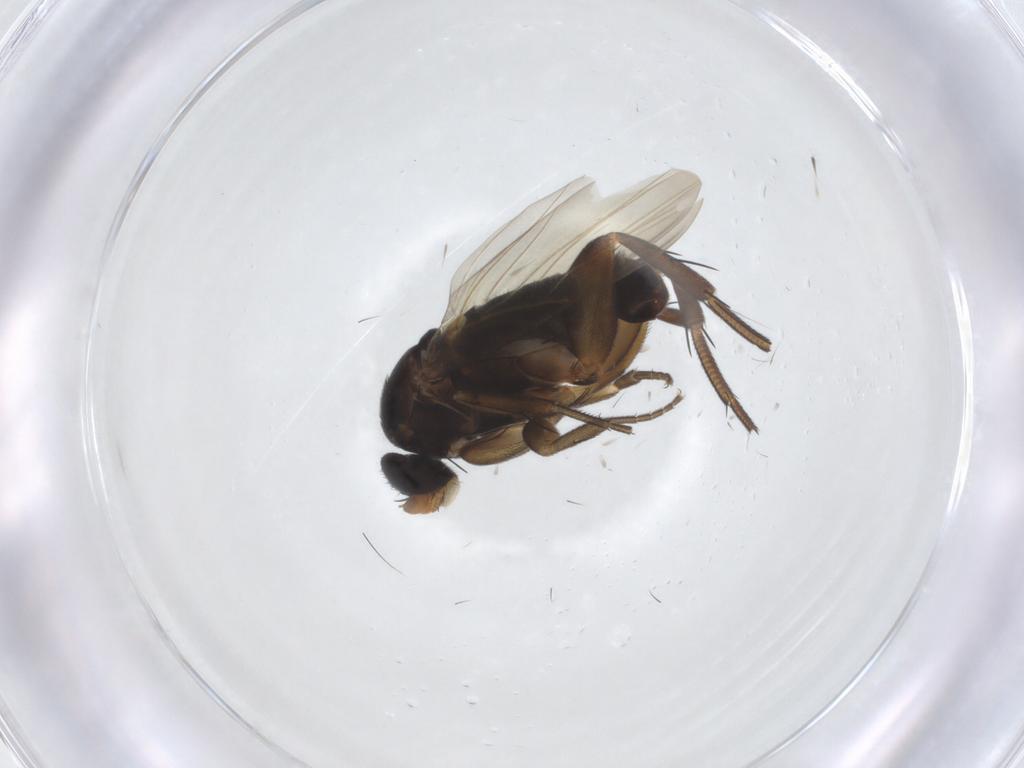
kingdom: Animalia
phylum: Arthropoda
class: Insecta
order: Diptera
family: Phoridae
